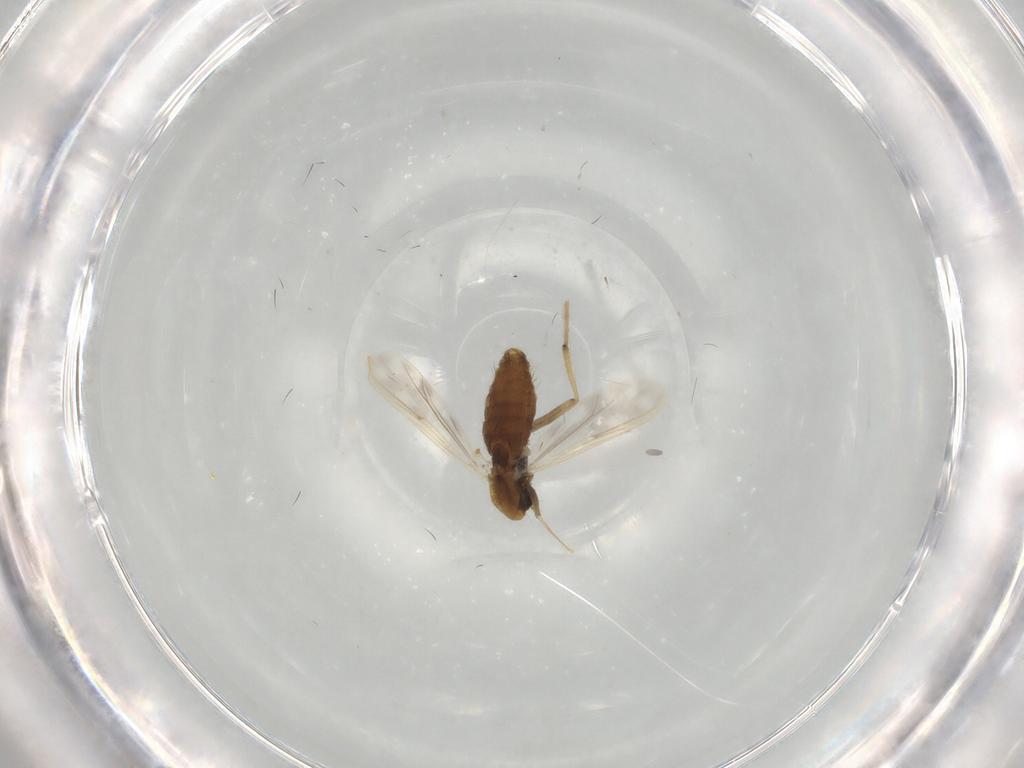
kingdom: Animalia
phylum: Arthropoda
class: Insecta
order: Diptera
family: Chironomidae
